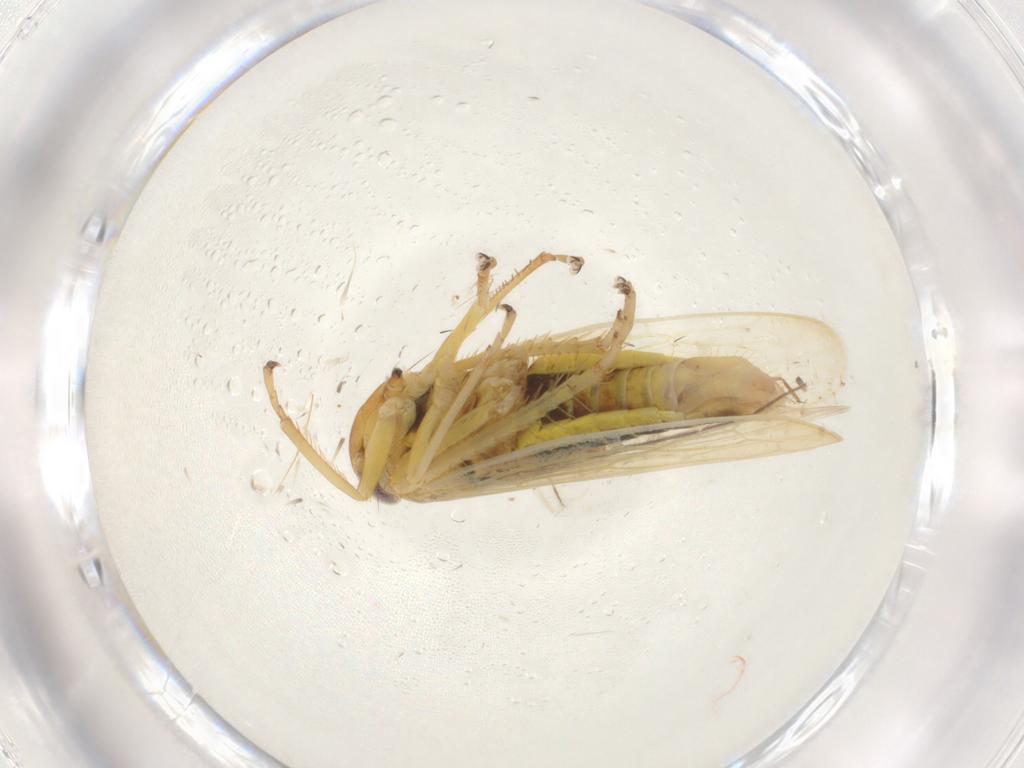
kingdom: Animalia
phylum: Arthropoda
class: Insecta
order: Hemiptera
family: Cicadellidae
